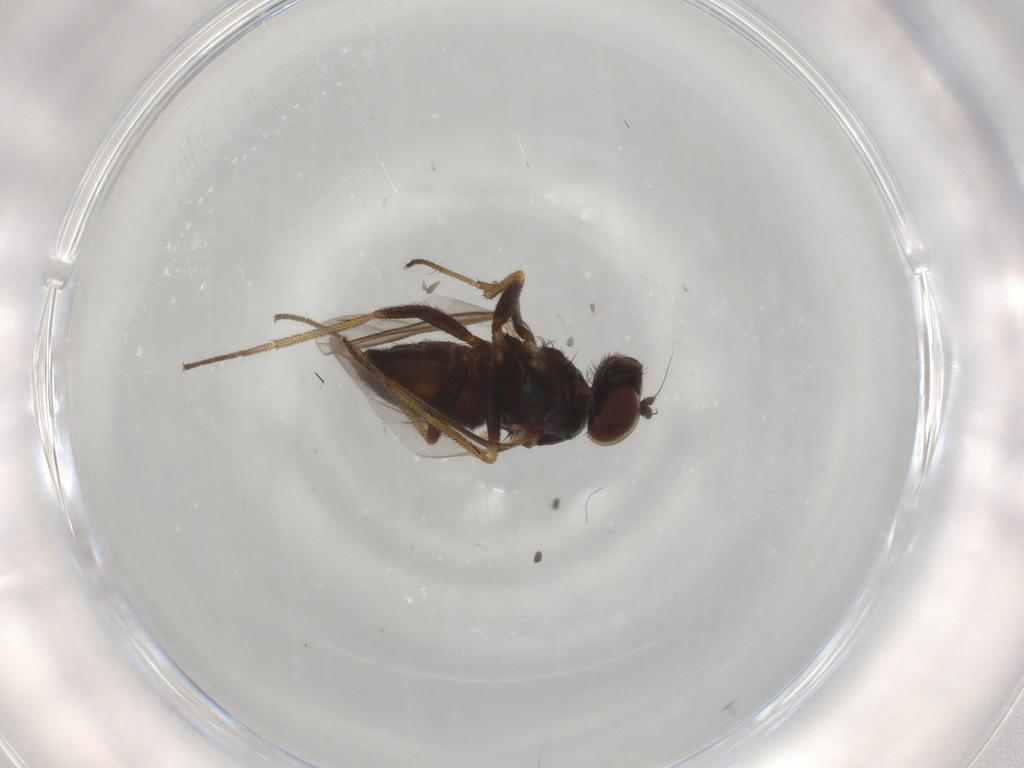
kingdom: Animalia
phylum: Arthropoda
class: Insecta
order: Diptera
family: Dolichopodidae
